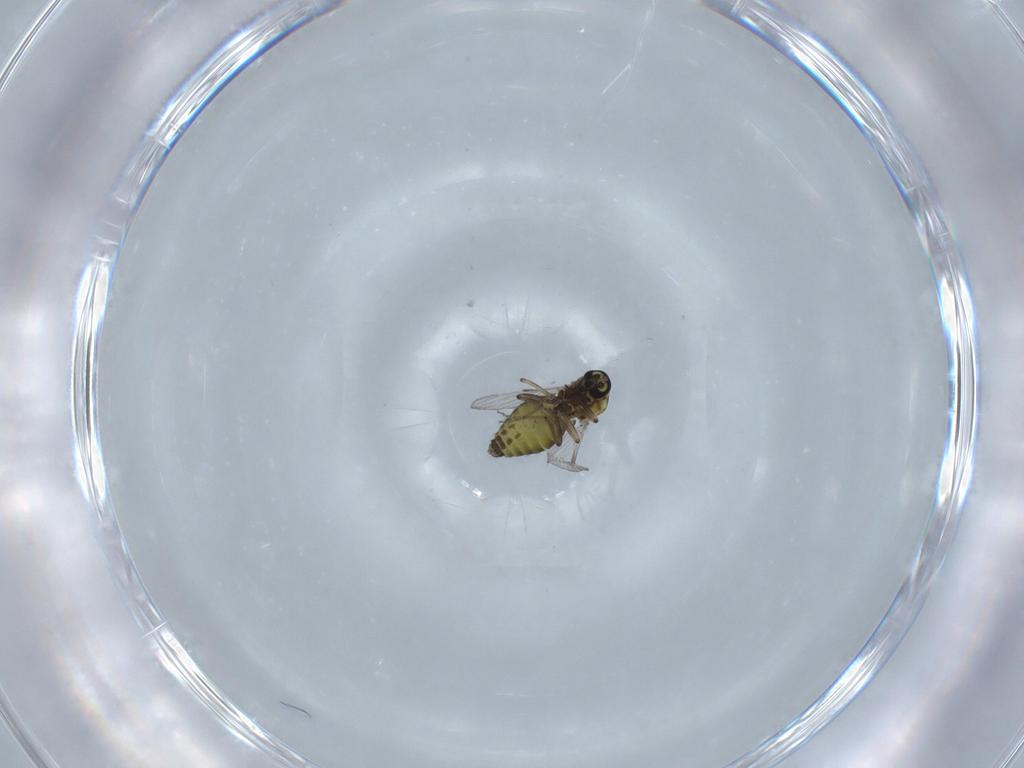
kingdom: Animalia
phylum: Arthropoda
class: Insecta
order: Diptera
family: Ceratopogonidae
